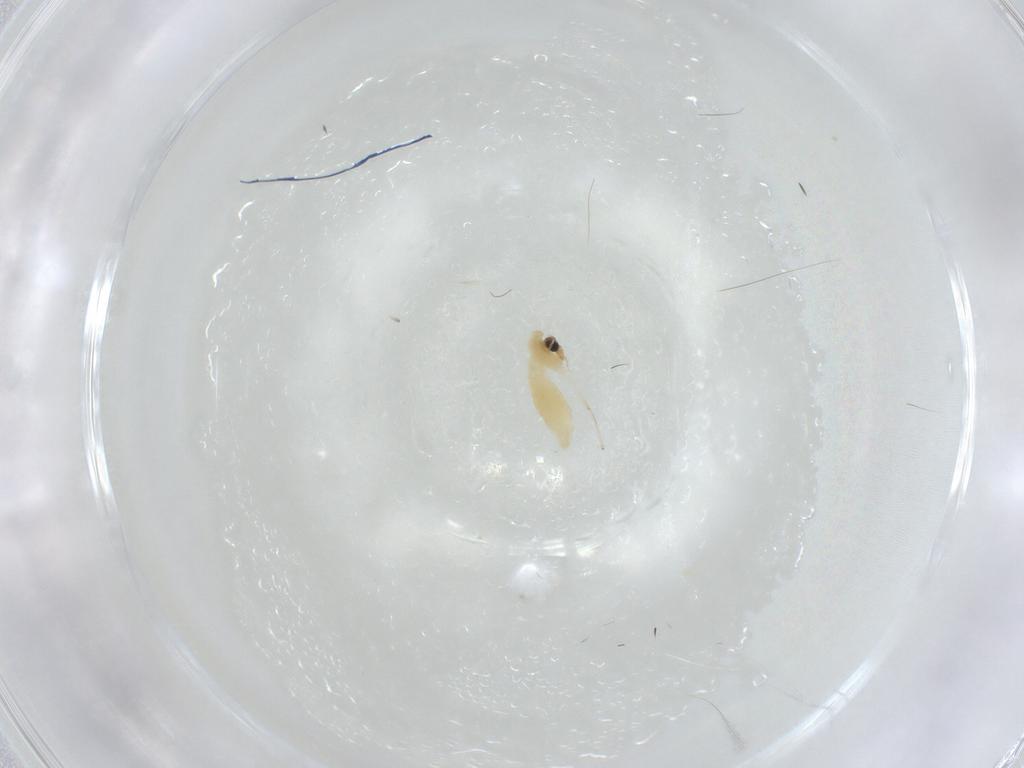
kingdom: Animalia
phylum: Arthropoda
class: Insecta
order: Diptera
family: Chironomidae
